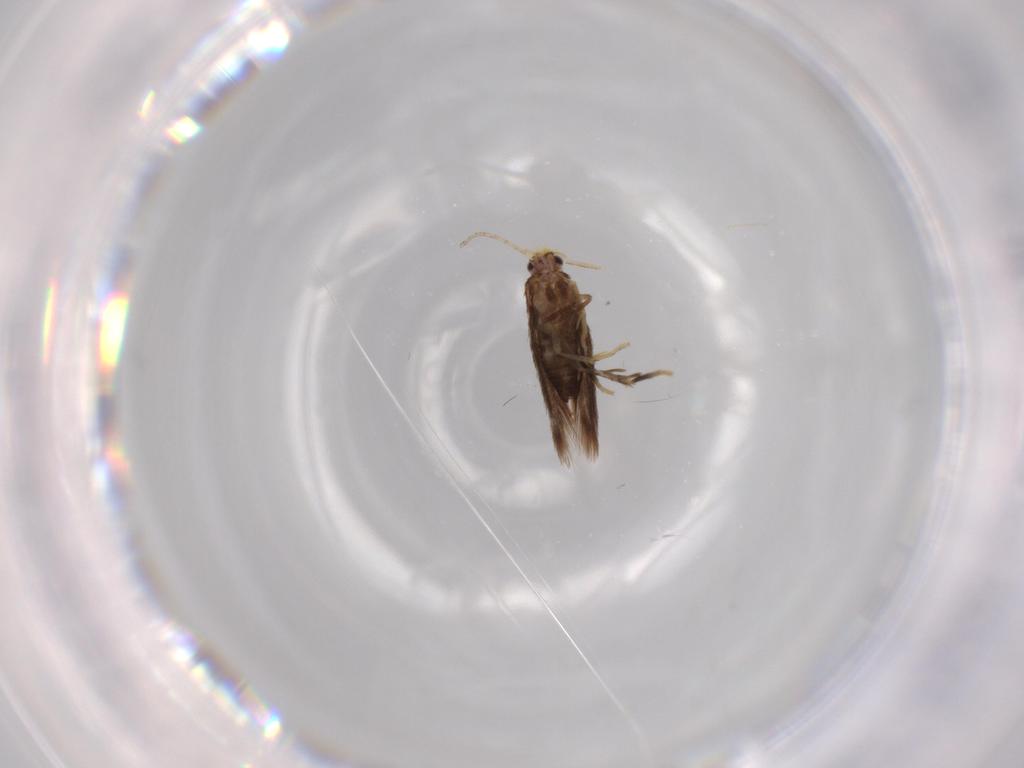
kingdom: Animalia
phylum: Arthropoda
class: Insecta
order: Lepidoptera
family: Nepticulidae
